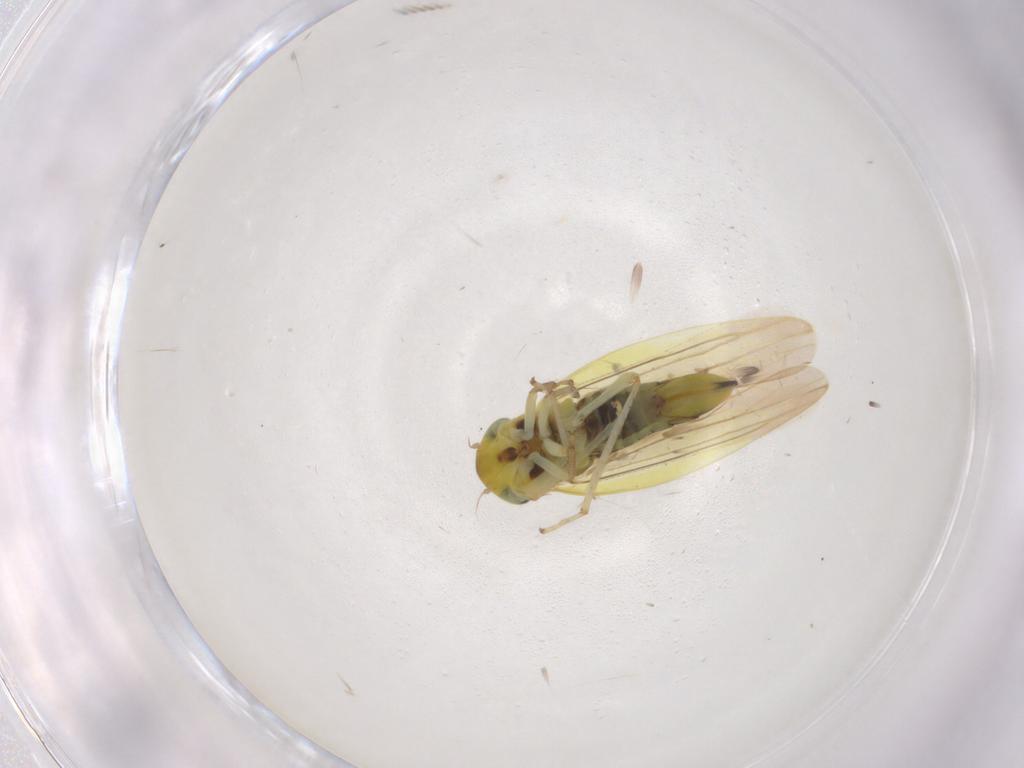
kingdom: Animalia
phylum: Arthropoda
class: Insecta
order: Hemiptera
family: Cicadellidae
